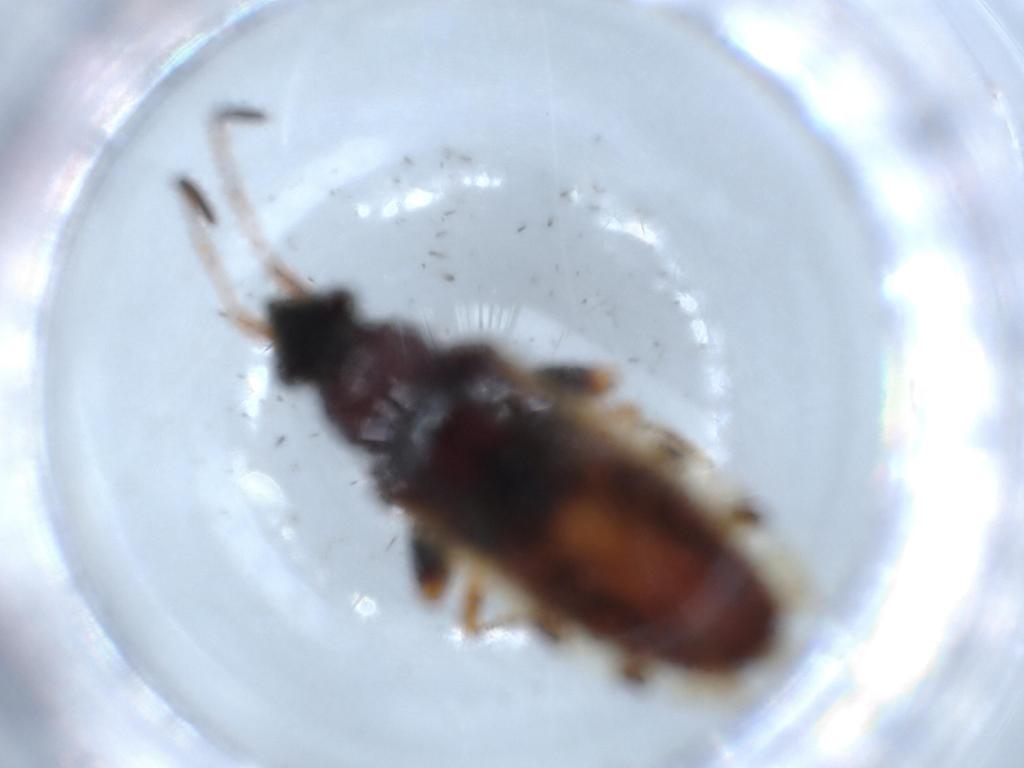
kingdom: Animalia
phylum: Arthropoda
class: Insecta
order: Hemiptera
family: Rhyparochromidae
